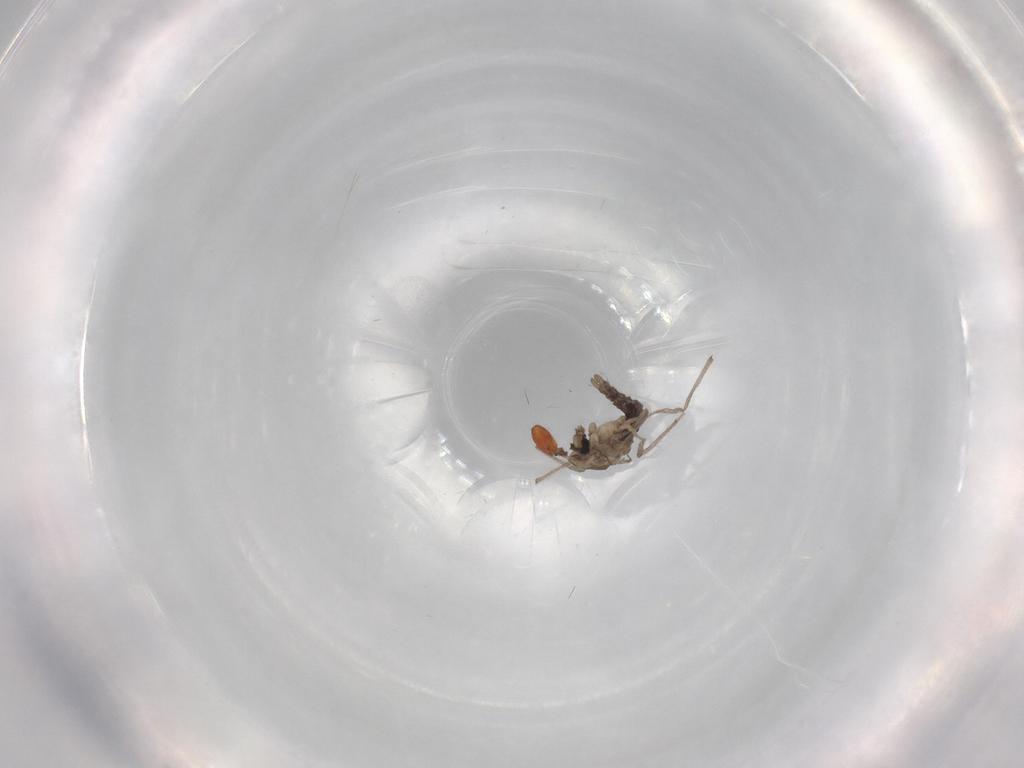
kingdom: Animalia
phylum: Arthropoda
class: Insecta
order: Diptera
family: Chironomidae
